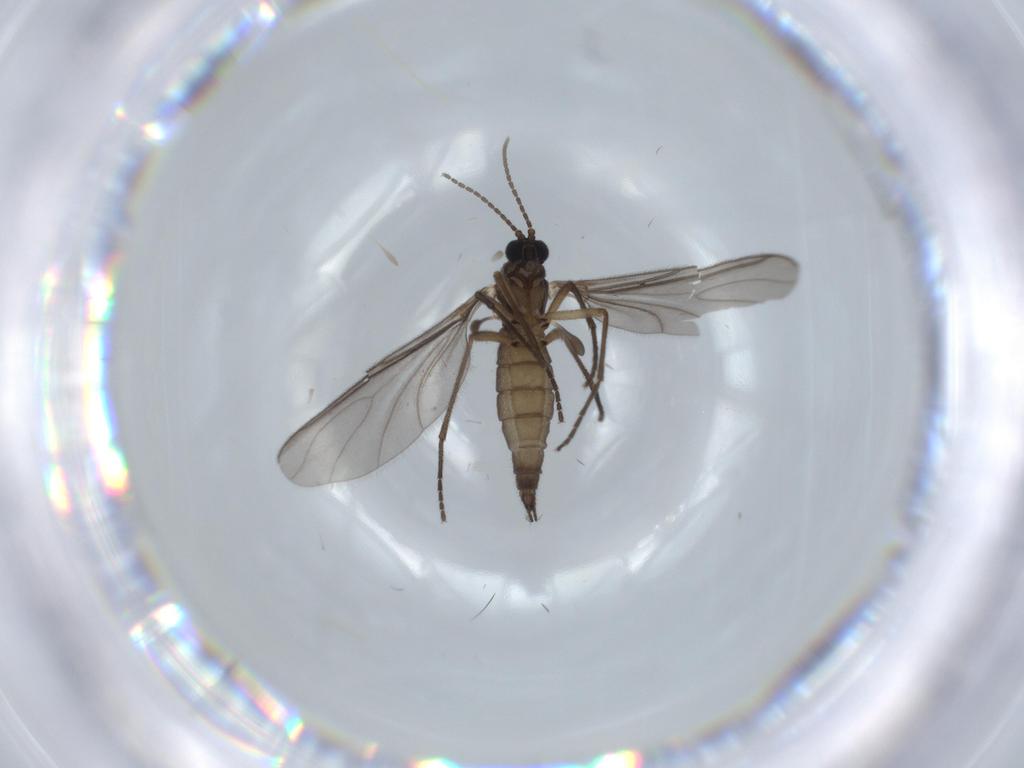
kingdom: Animalia
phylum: Arthropoda
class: Insecta
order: Diptera
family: Sciaridae
